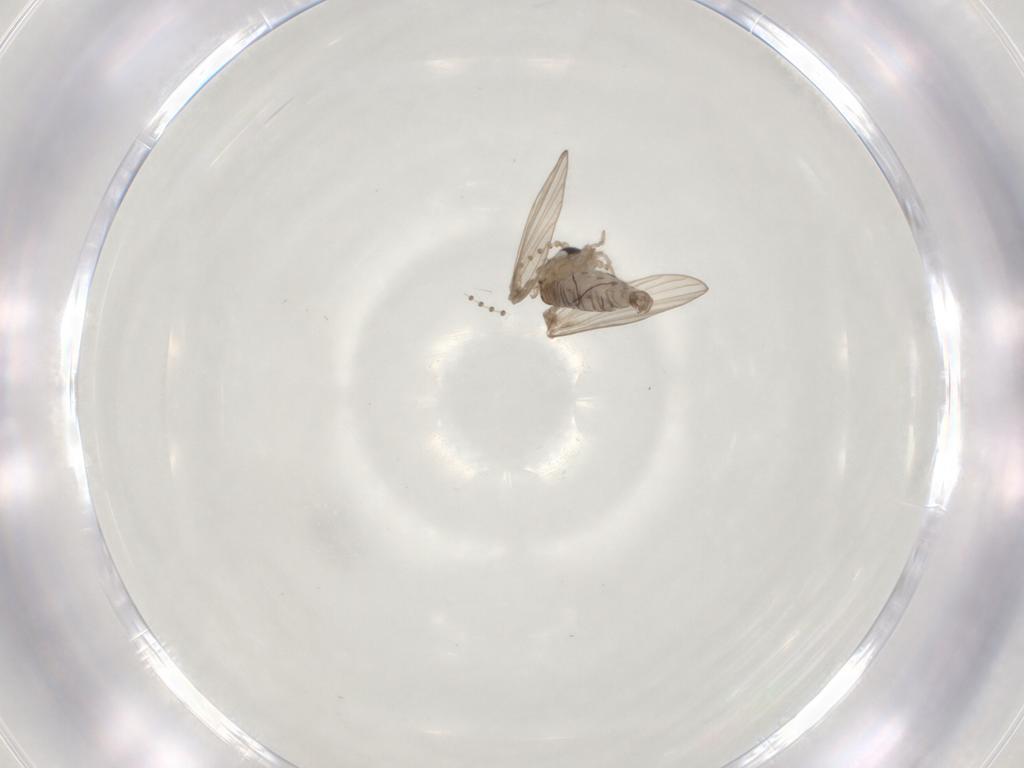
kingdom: Animalia
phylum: Arthropoda
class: Insecta
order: Diptera
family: Psychodidae
